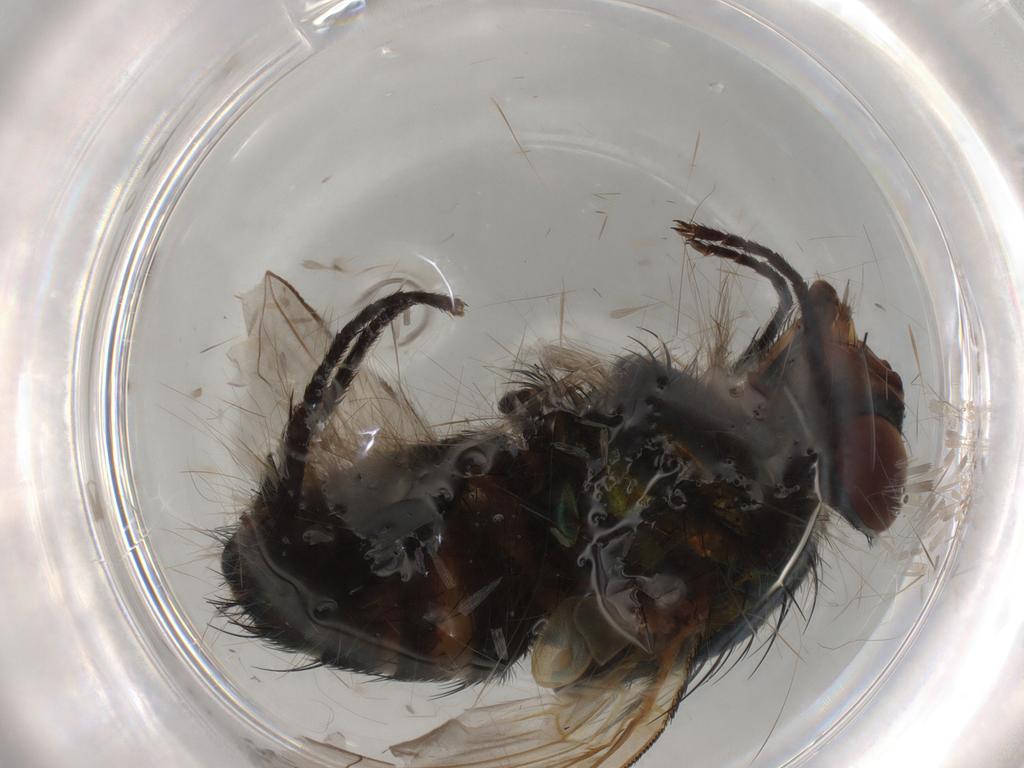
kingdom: Animalia
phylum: Arthropoda
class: Insecta
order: Diptera
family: Calliphoridae
